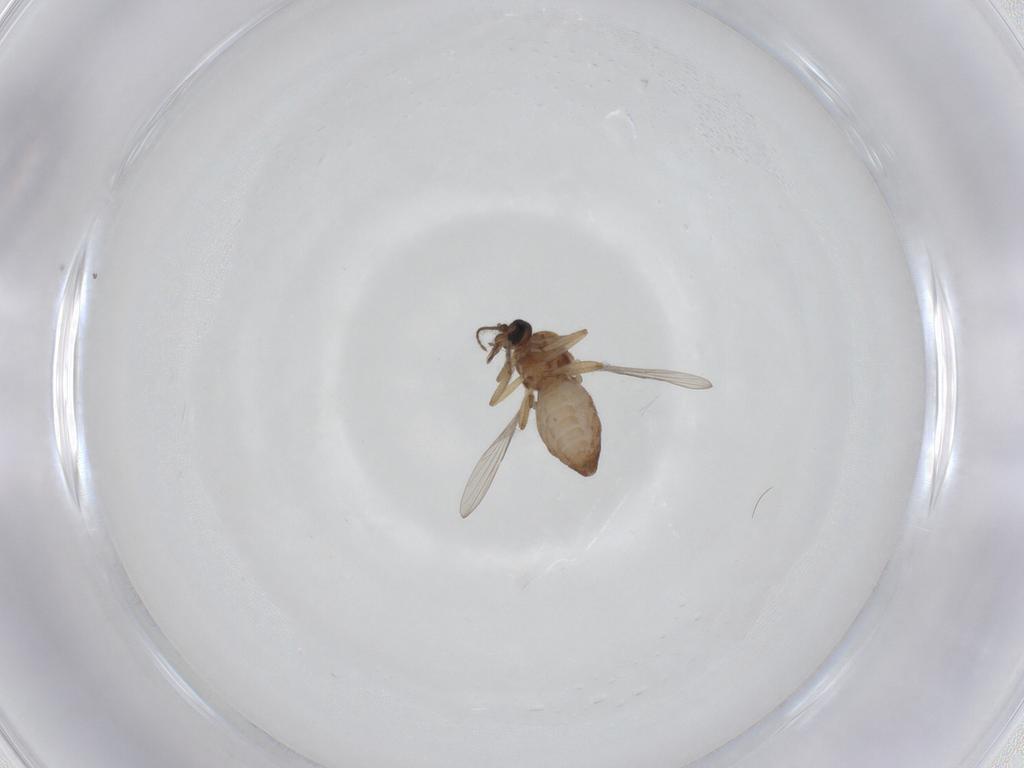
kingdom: Animalia
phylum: Arthropoda
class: Insecta
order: Diptera
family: Ceratopogonidae
